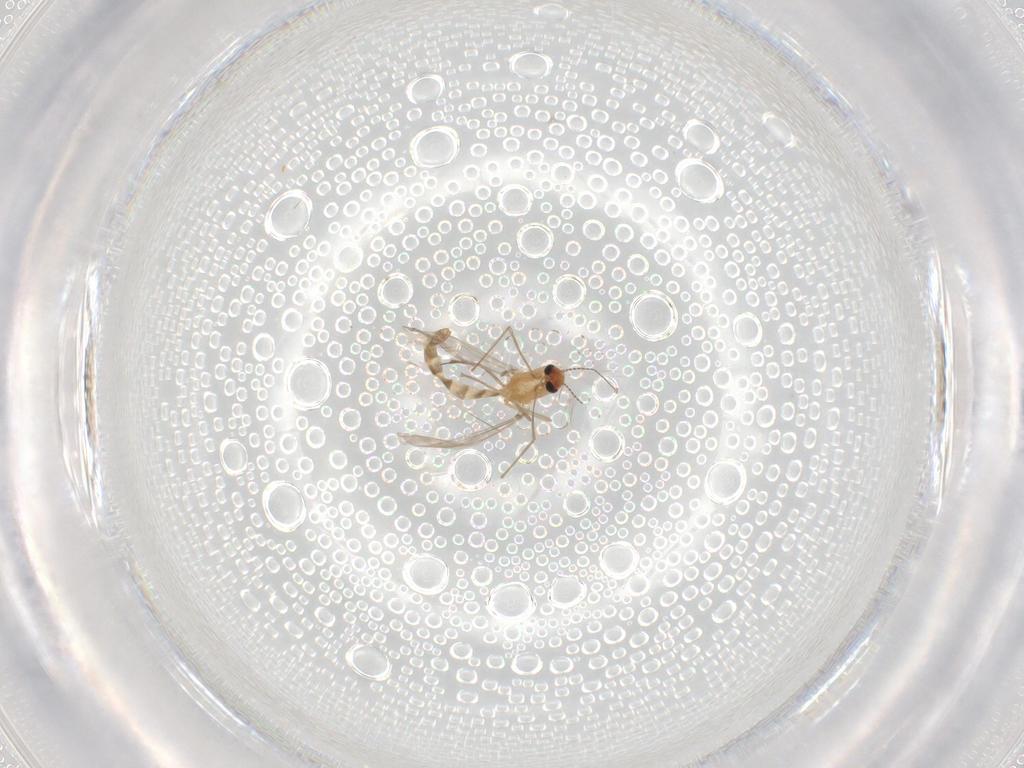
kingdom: Animalia
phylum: Arthropoda
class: Insecta
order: Diptera
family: Chironomidae
